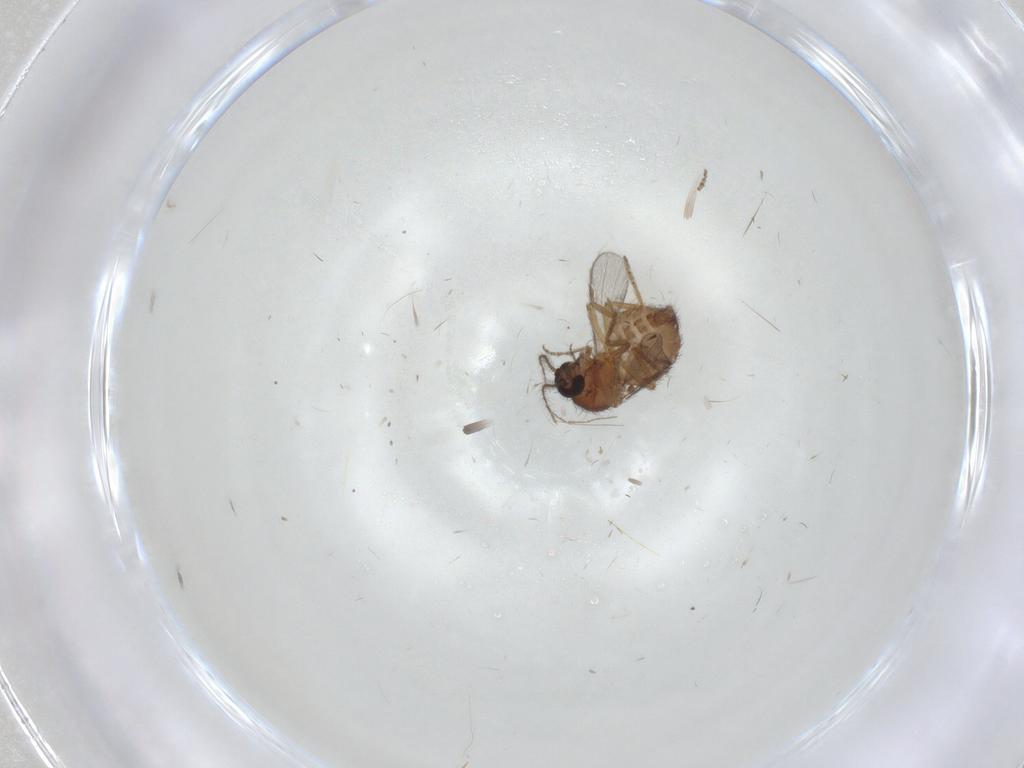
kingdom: Animalia
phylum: Arthropoda
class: Insecta
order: Diptera
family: Ceratopogonidae
